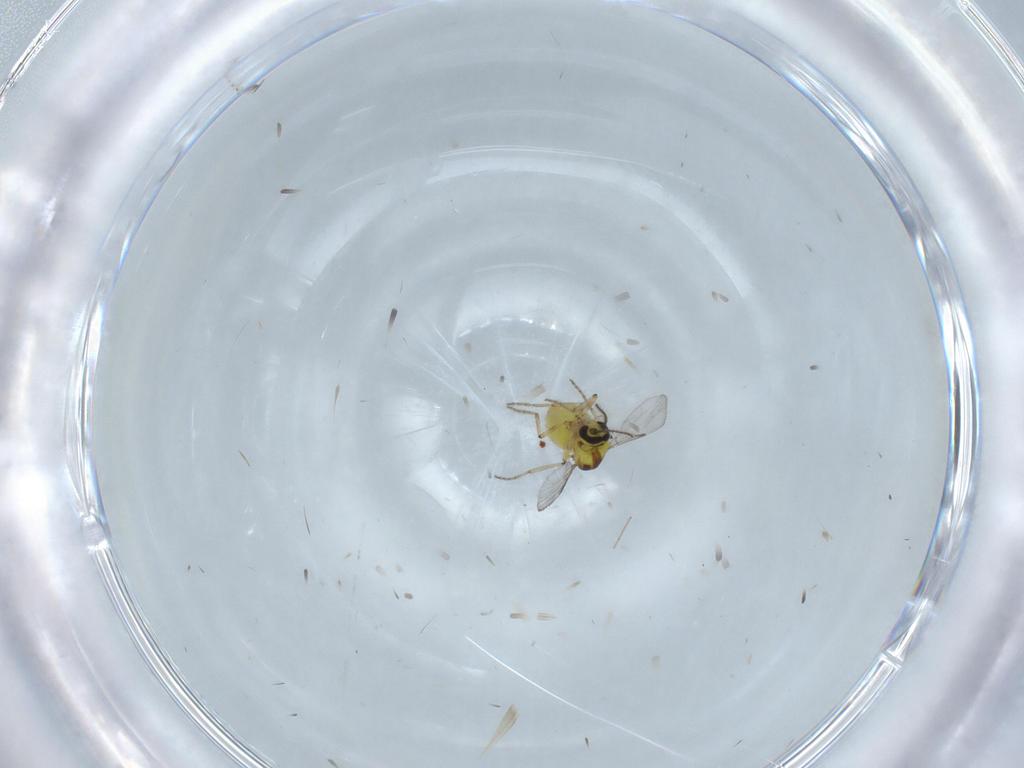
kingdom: Animalia
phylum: Arthropoda
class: Insecta
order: Diptera
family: Ceratopogonidae
